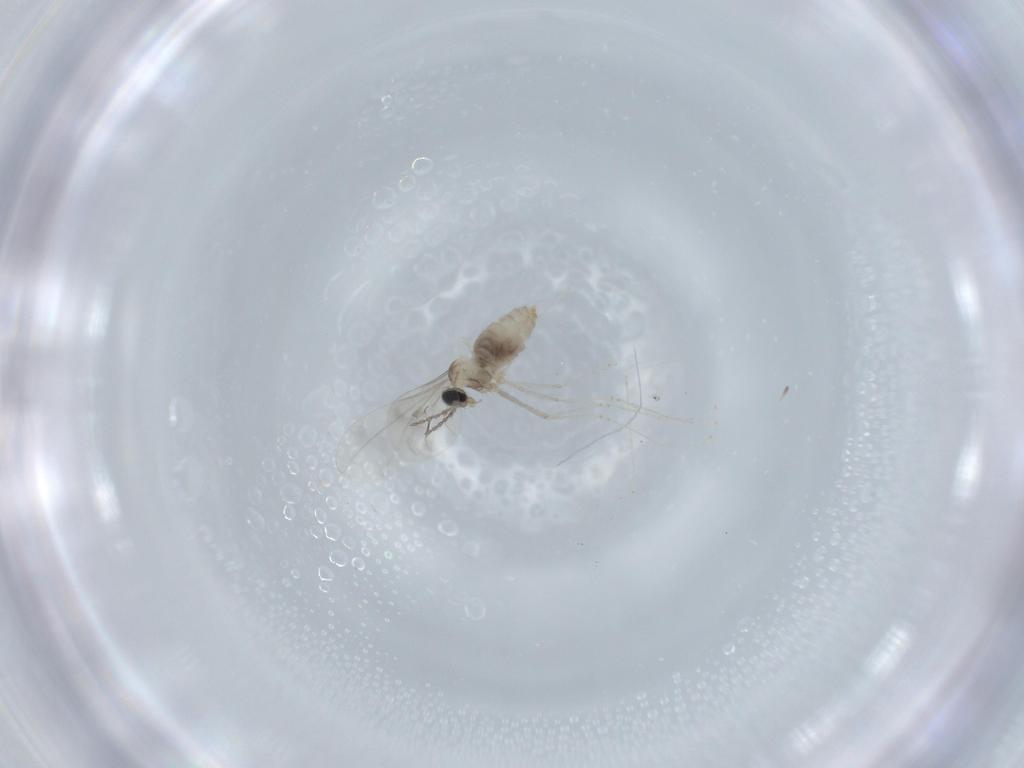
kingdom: Animalia
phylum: Arthropoda
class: Insecta
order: Diptera
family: Cecidomyiidae
